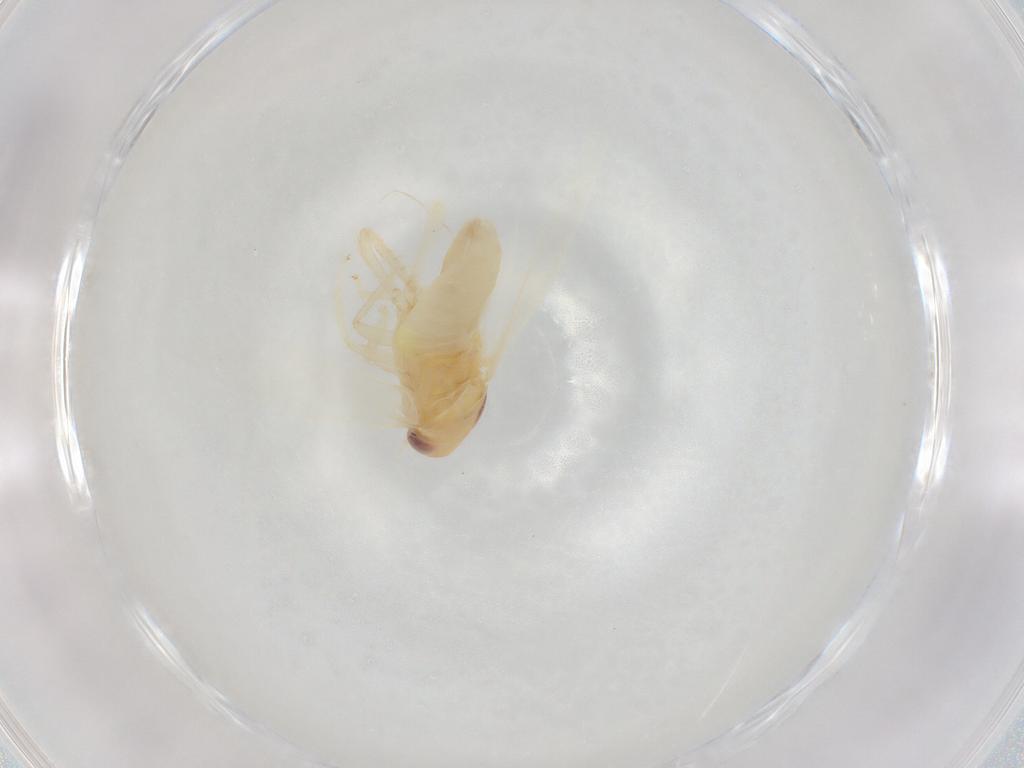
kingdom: Animalia
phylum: Arthropoda
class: Insecta
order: Hemiptera
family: Cicadellidae
